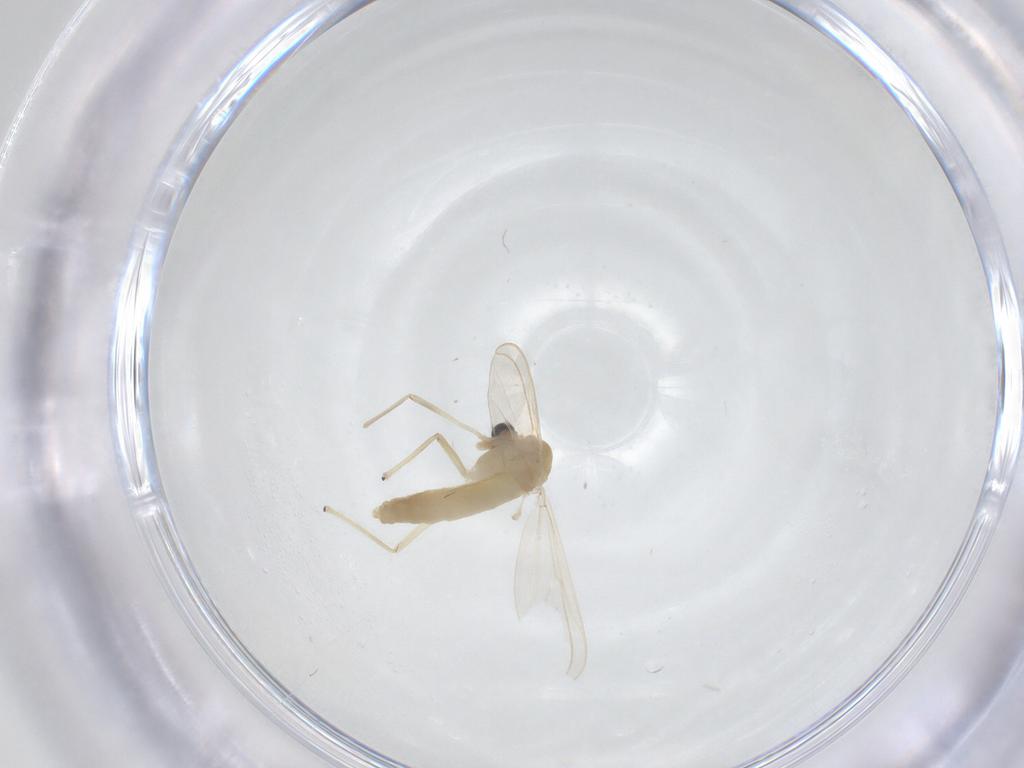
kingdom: Animalia
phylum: Arthropoda
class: Insecta
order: Diptera
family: Chironomidae
